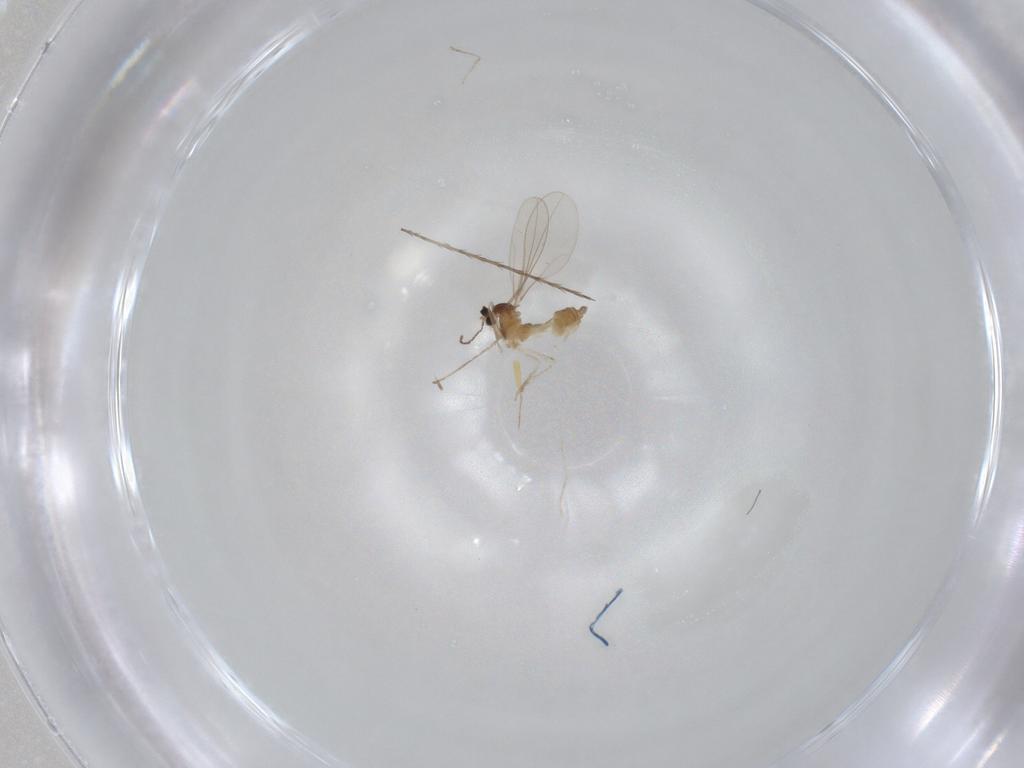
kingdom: Animalia
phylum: Arthropoda
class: Insecta
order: Diptera
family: Cecidomyiidae
